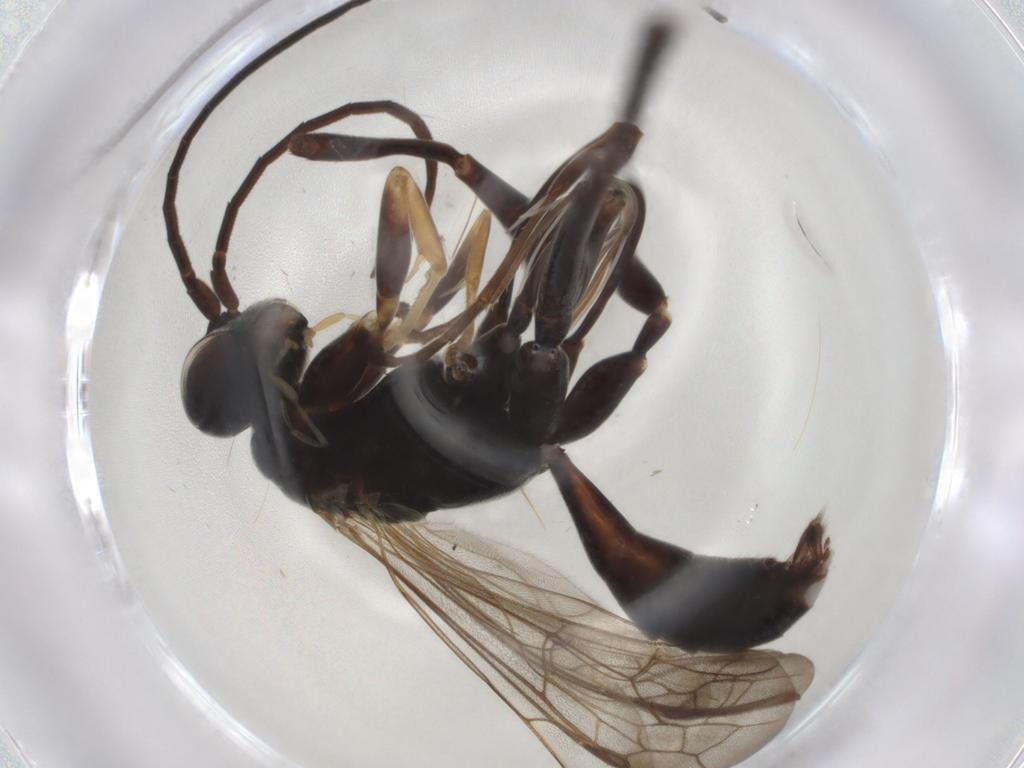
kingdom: Animalia
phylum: Arthropoda
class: Insecta
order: Hymenoptera
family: Pompilidae
